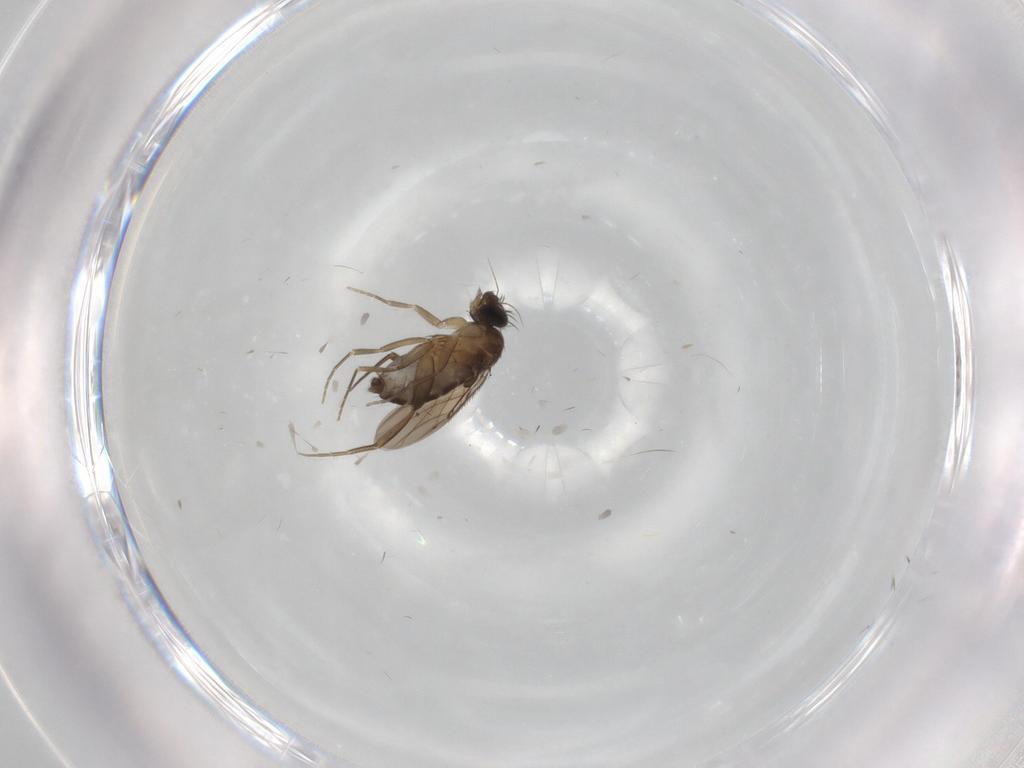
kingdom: Animalia
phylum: Arthropoda
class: Insecta
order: Diptera
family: Phoridae
